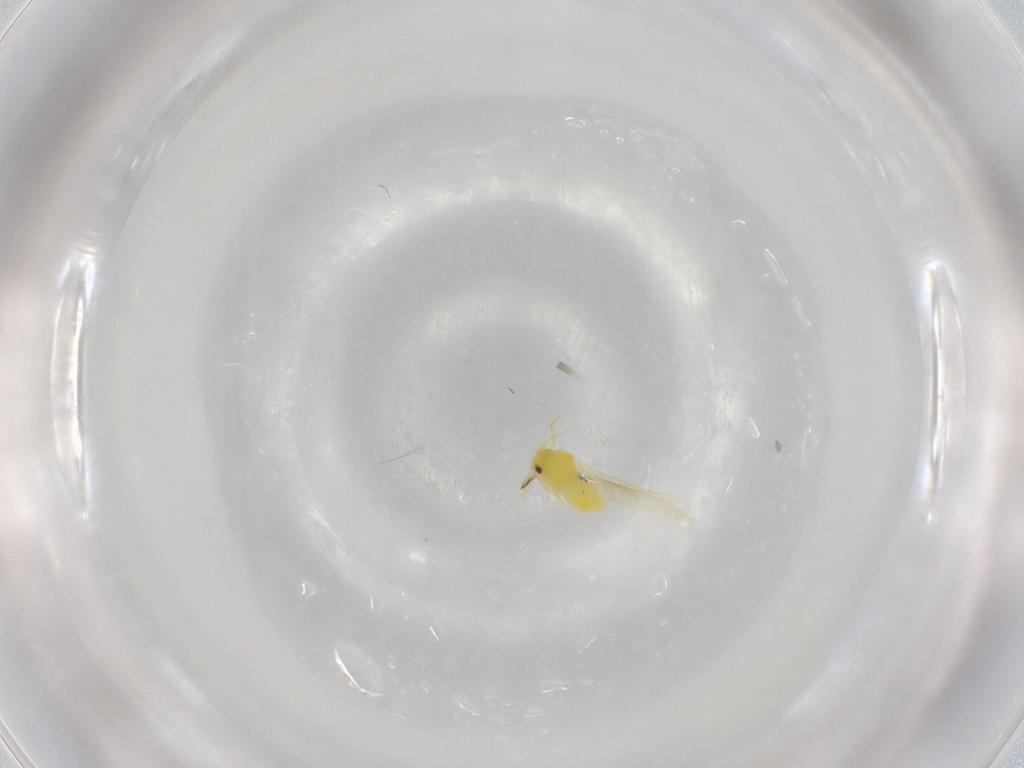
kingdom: Animalia
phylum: Arthropoda
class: Insecta
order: Hemiptera
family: Aleyrodidae
